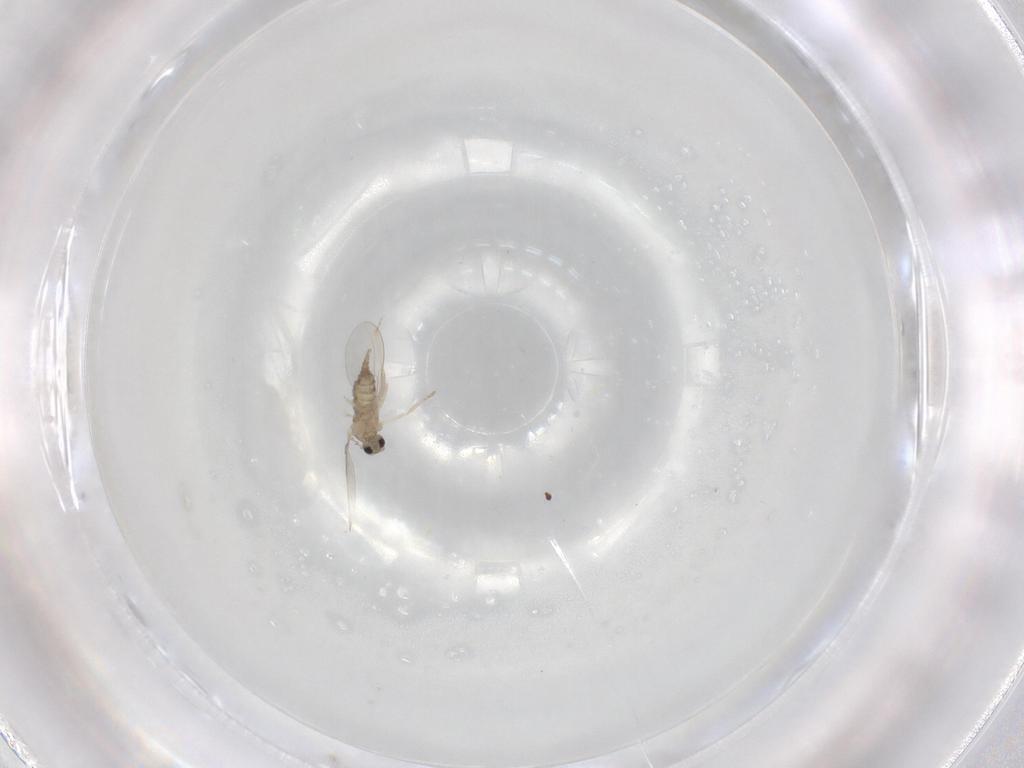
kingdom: Animalia
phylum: Arthropoda
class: Insecta
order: Diptera
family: Cecidomyiidae
